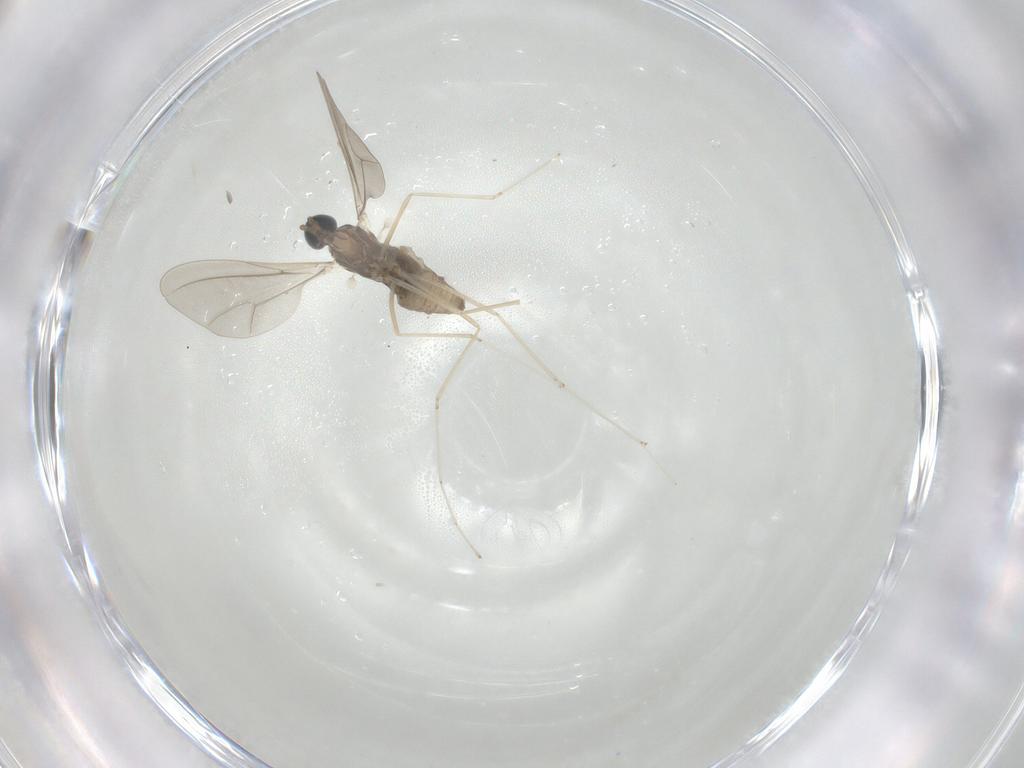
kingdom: Animalia
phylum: Arthropoda
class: Insecta
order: Diptera
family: Cecidomyiidae
